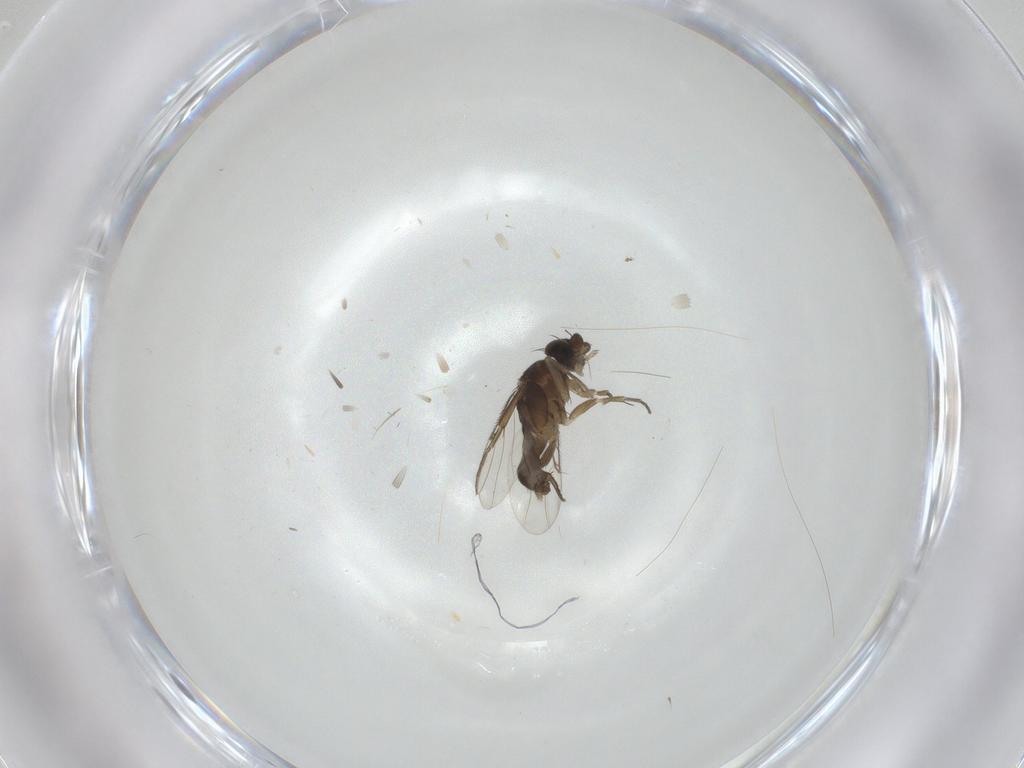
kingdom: Animalia
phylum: Arthropoda
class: Insecta
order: Diptera
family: Phoridae
